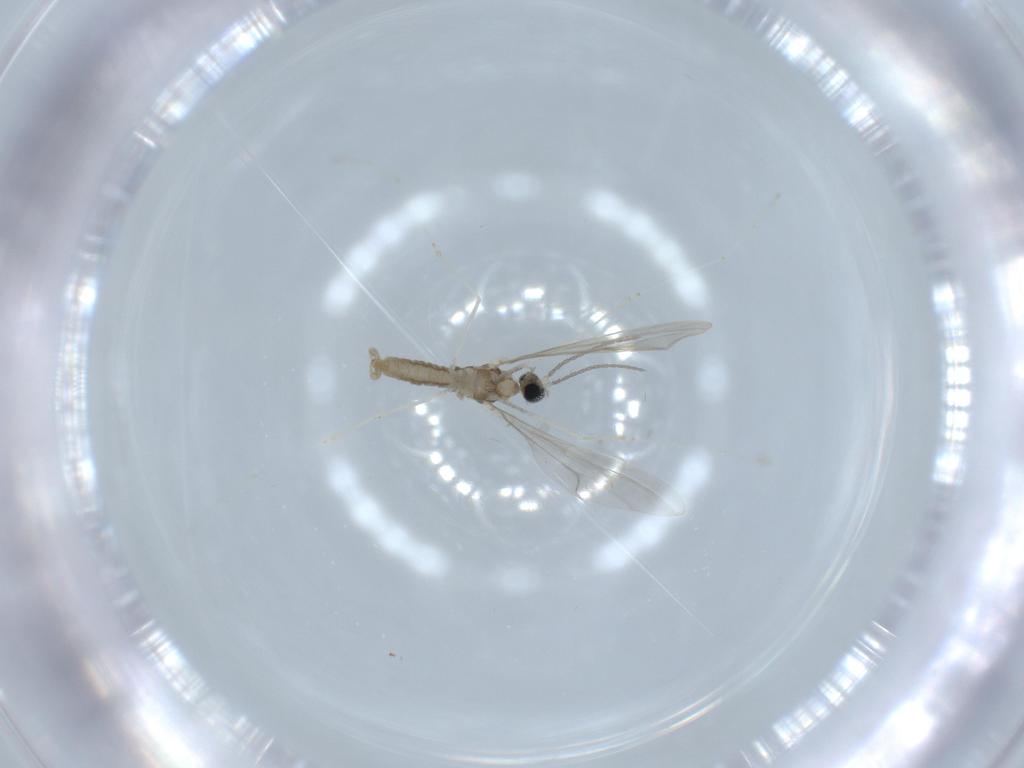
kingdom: Animalia
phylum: Arthropoda
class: Insecta
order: Diptera
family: Cecidomyiidae
